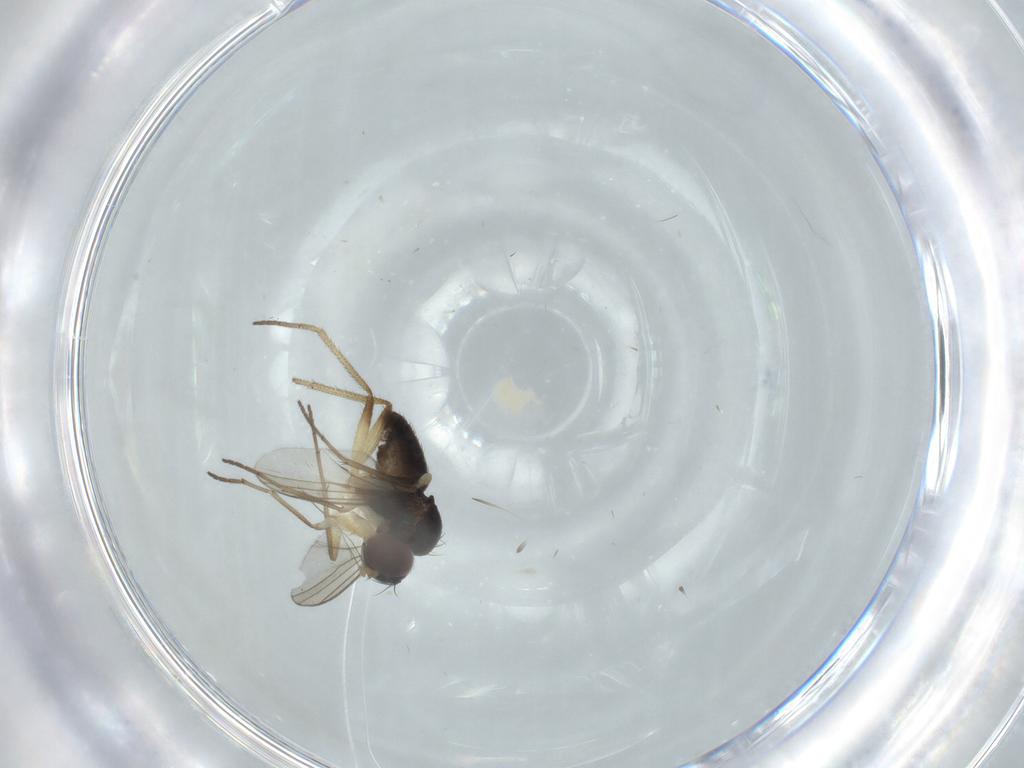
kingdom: Animalia
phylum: Arthropoda
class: Insecta
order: Diptera
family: Dolichopodidae
